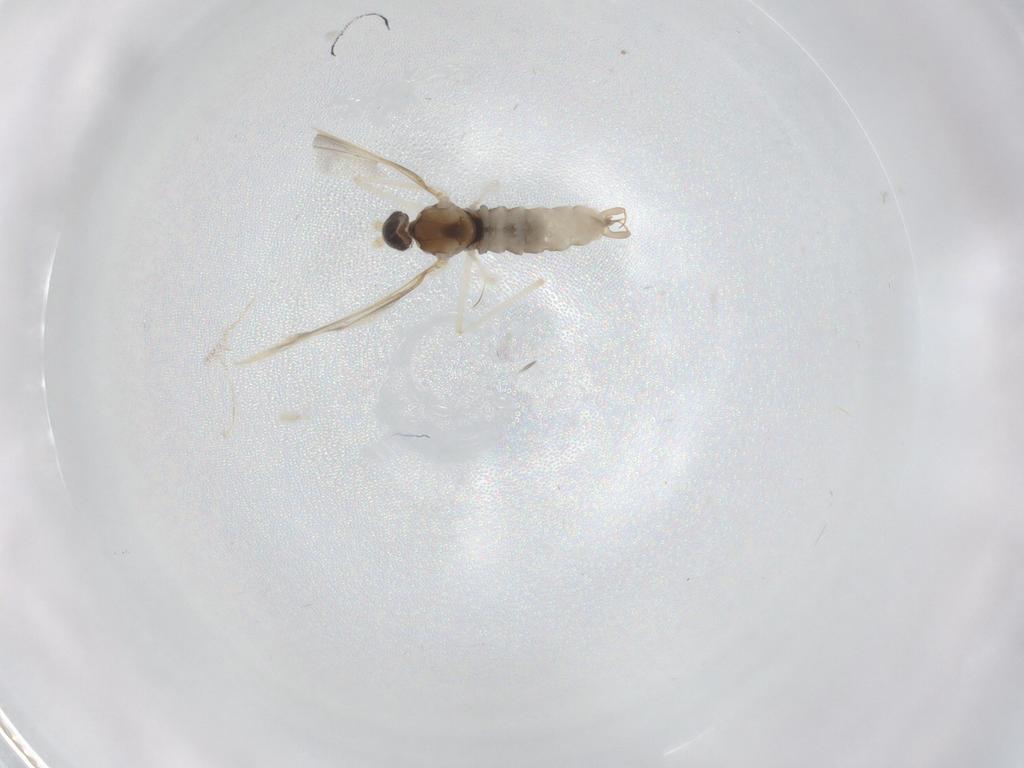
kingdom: Animalia
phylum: Arthropoda
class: Insecta
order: Diptera
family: Cecidomyiidae
